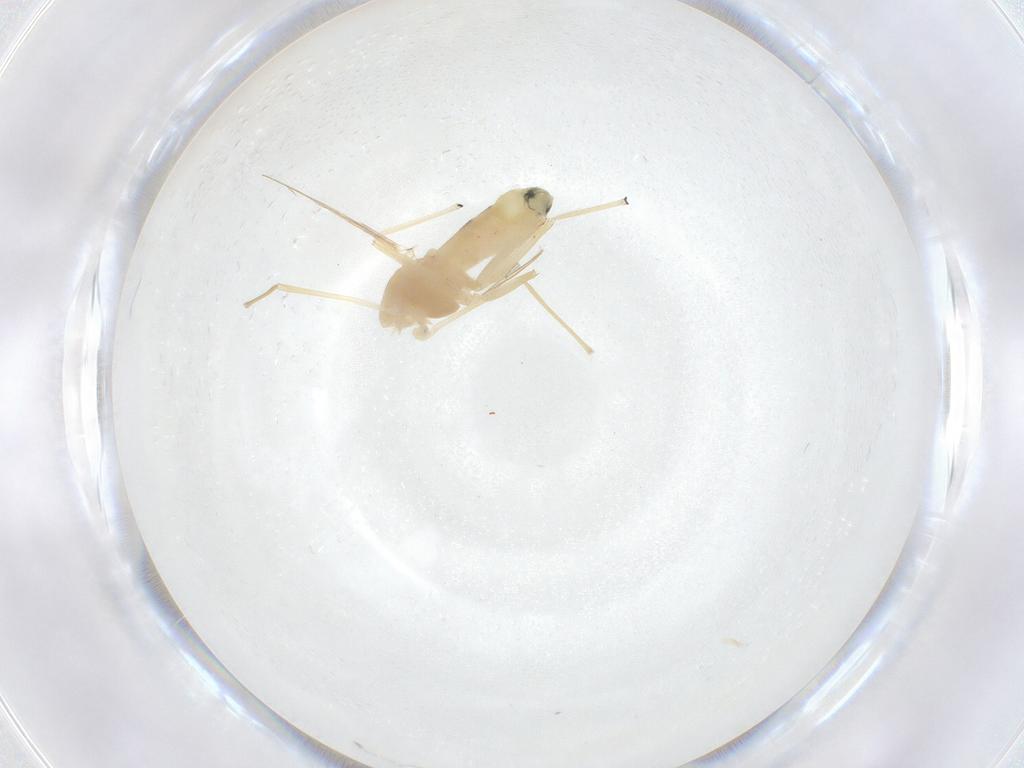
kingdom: Animalia
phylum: Arthropoda
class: Insecta
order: Diptera
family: Chironomidae
